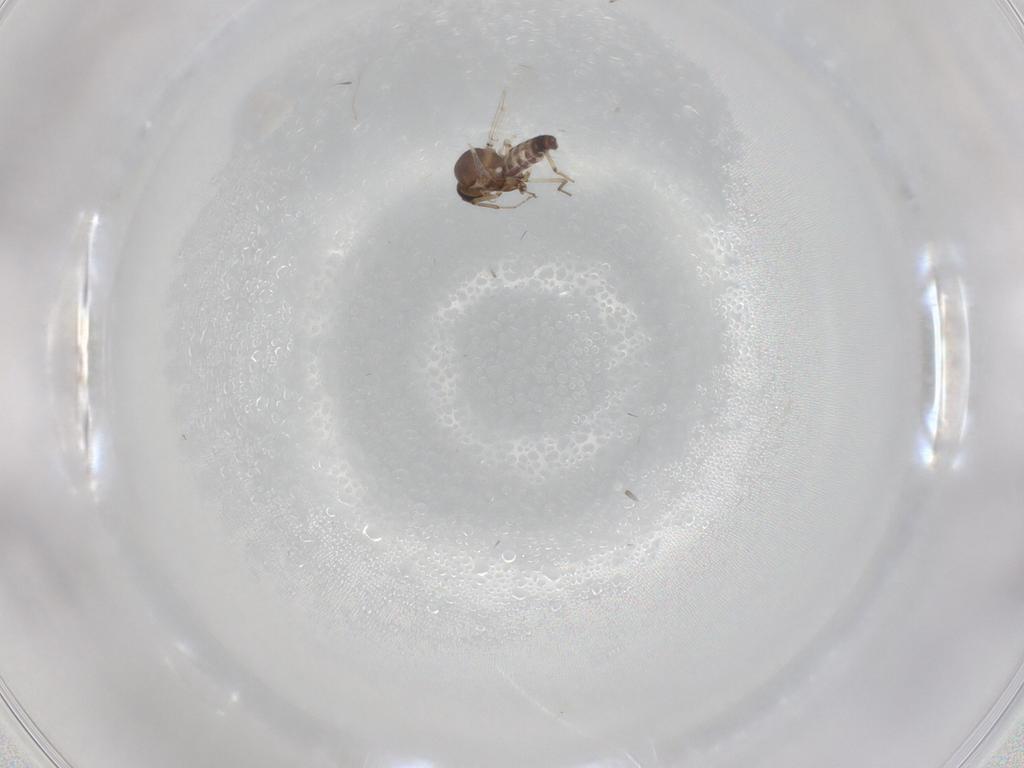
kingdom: Animalia
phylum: Arthropoda
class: Insecta
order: Diptera
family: Ceratopogonidae
